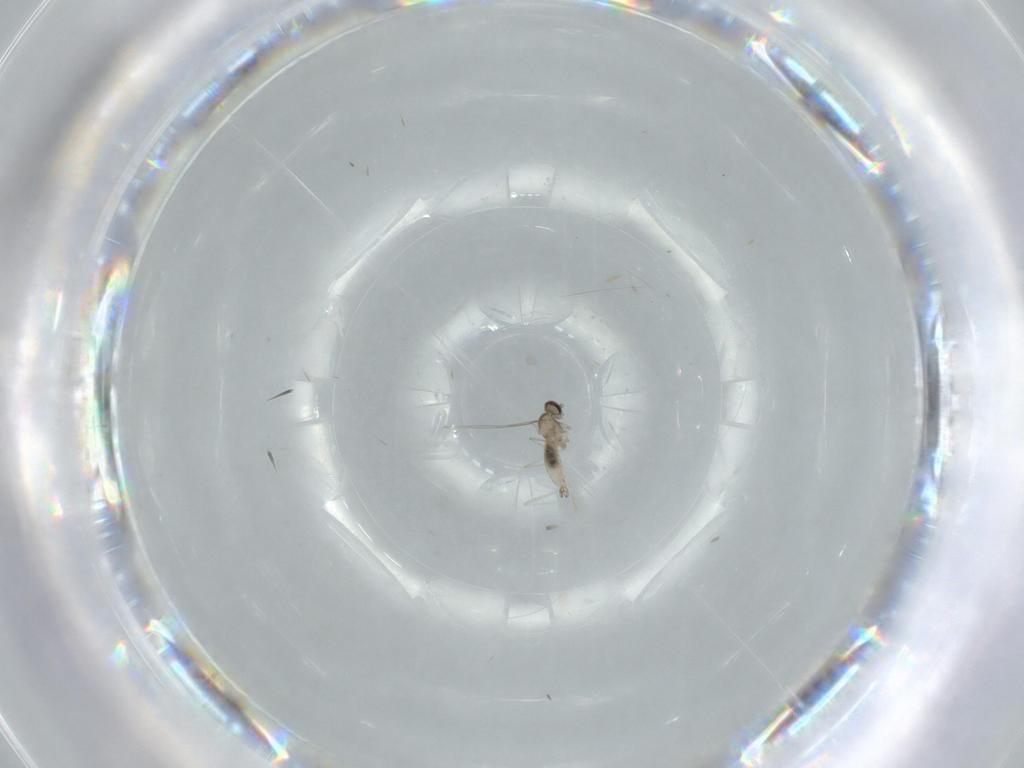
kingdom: Animalia
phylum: Arthropoda
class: Insecta
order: Diptera
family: Cecidomyiidae
